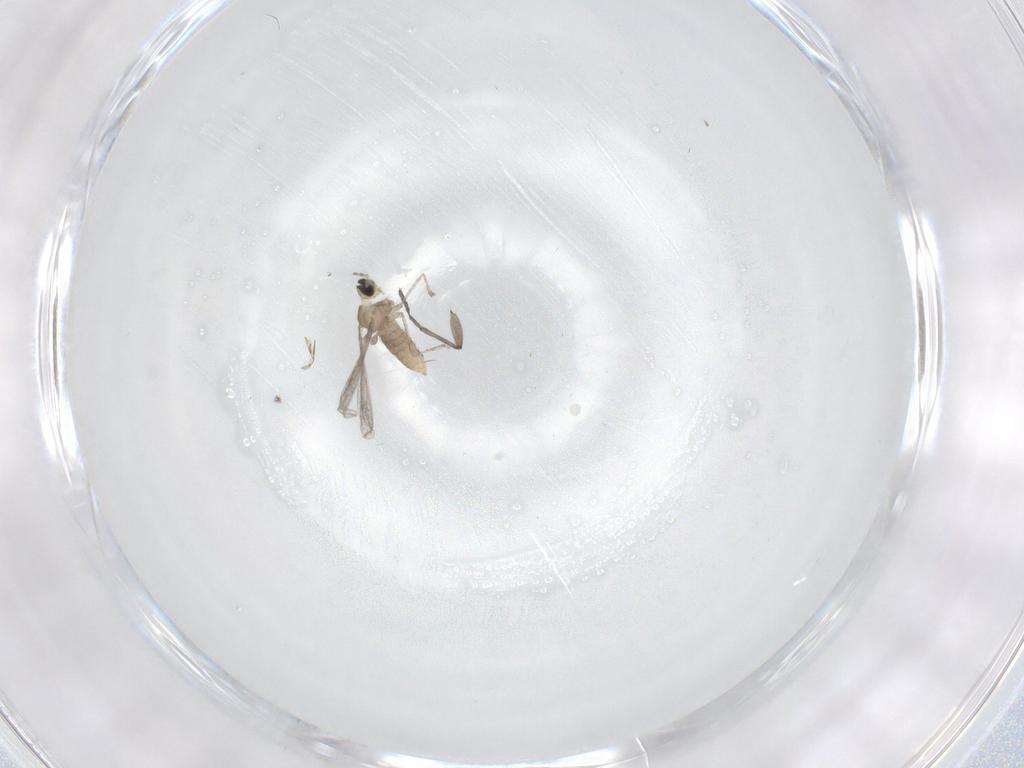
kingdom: Animalia
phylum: Arthropoda
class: Insecta
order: Diptera
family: Sciaridae
